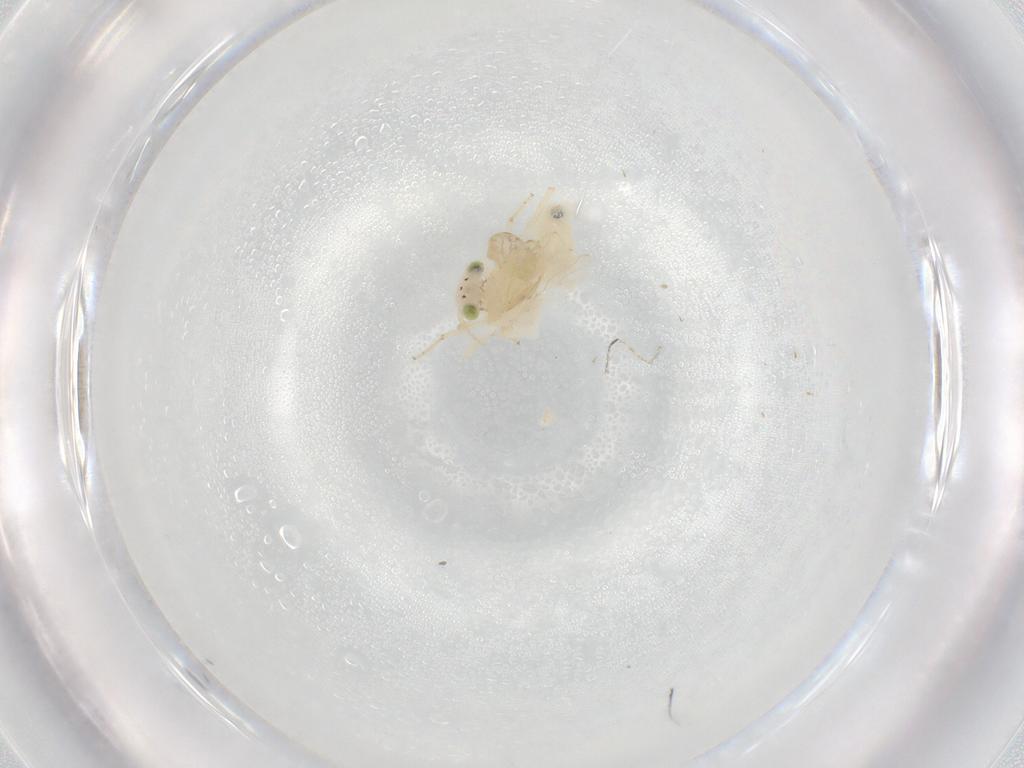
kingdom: Animalia
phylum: Arthropoda
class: Insecta
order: Psocodea
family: Lepidopsocidae
